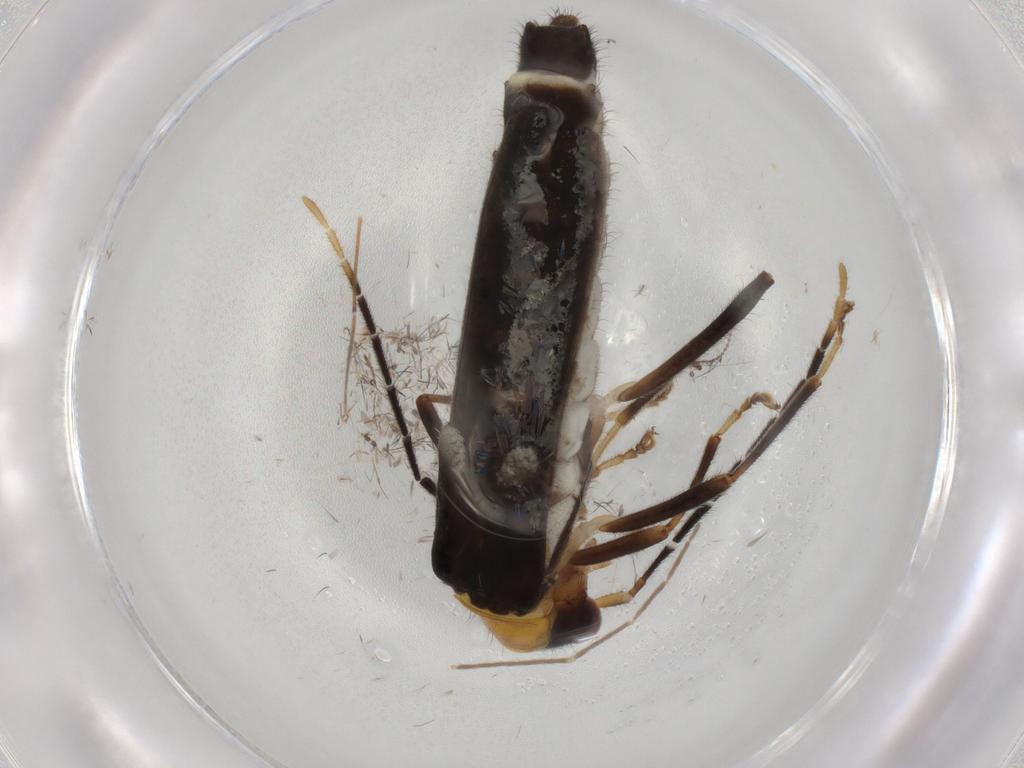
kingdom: Animalia
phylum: Arthropoda
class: Insecta
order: Coleoptera
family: Cantharidae
